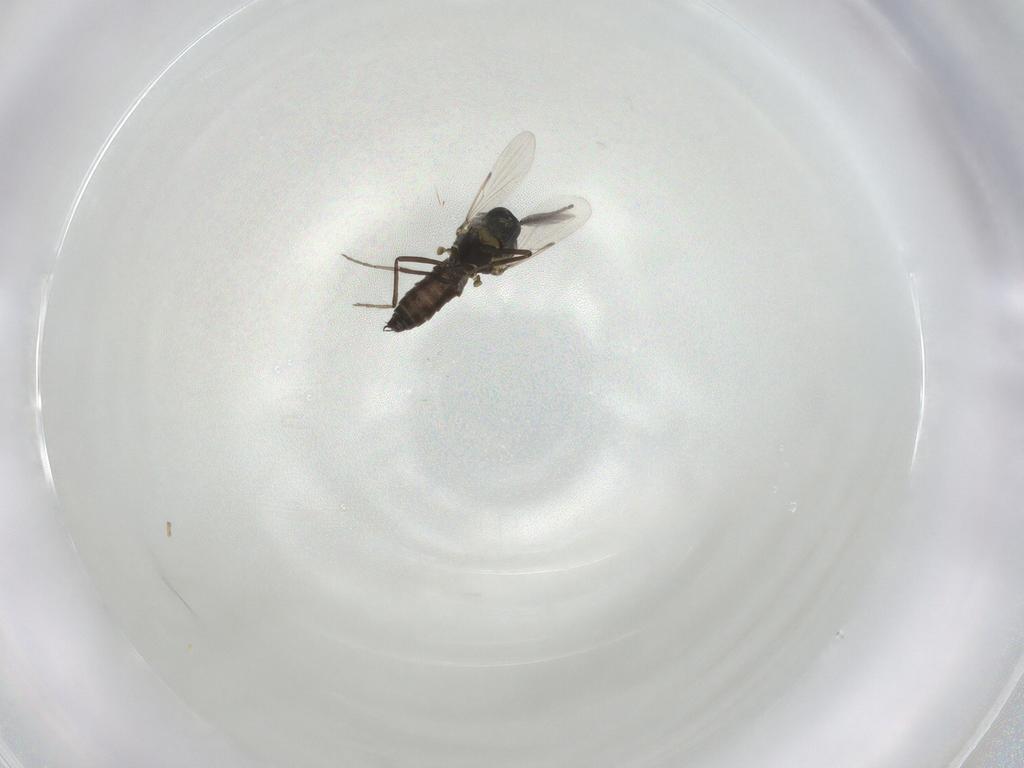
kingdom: Animalia
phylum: Arthropoda
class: Insecta
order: Diptera
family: Ceratopogonidae
